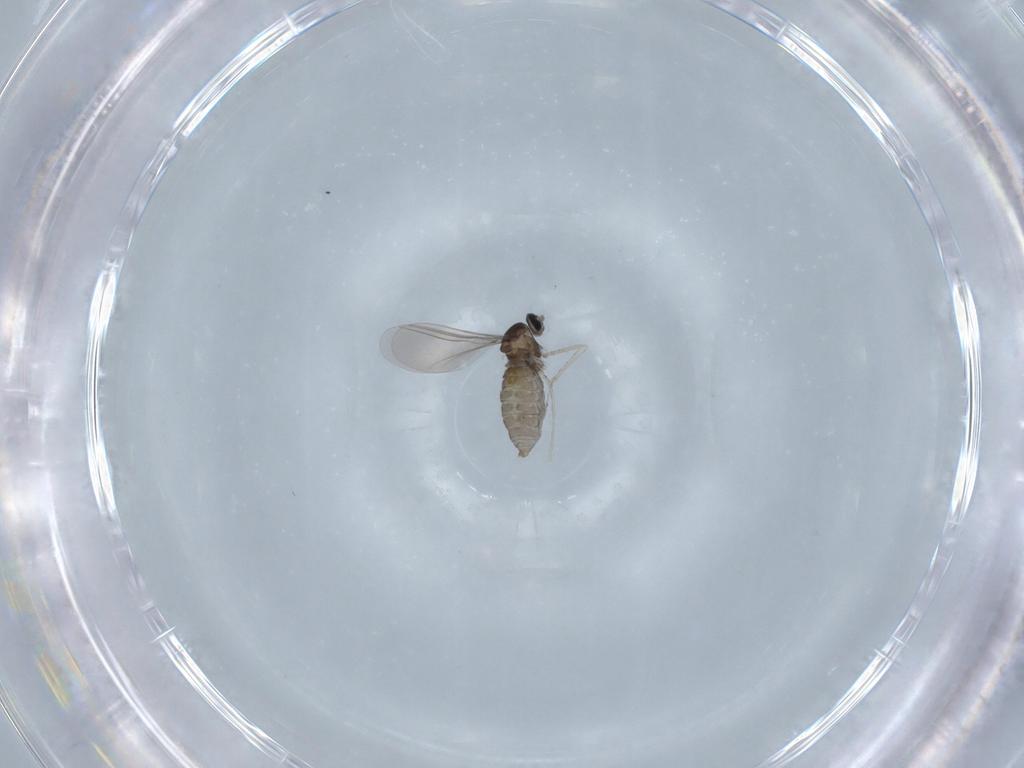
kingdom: Animalia
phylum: Arthropoda
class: Insecta
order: Diptera
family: Cecidomyiidae
